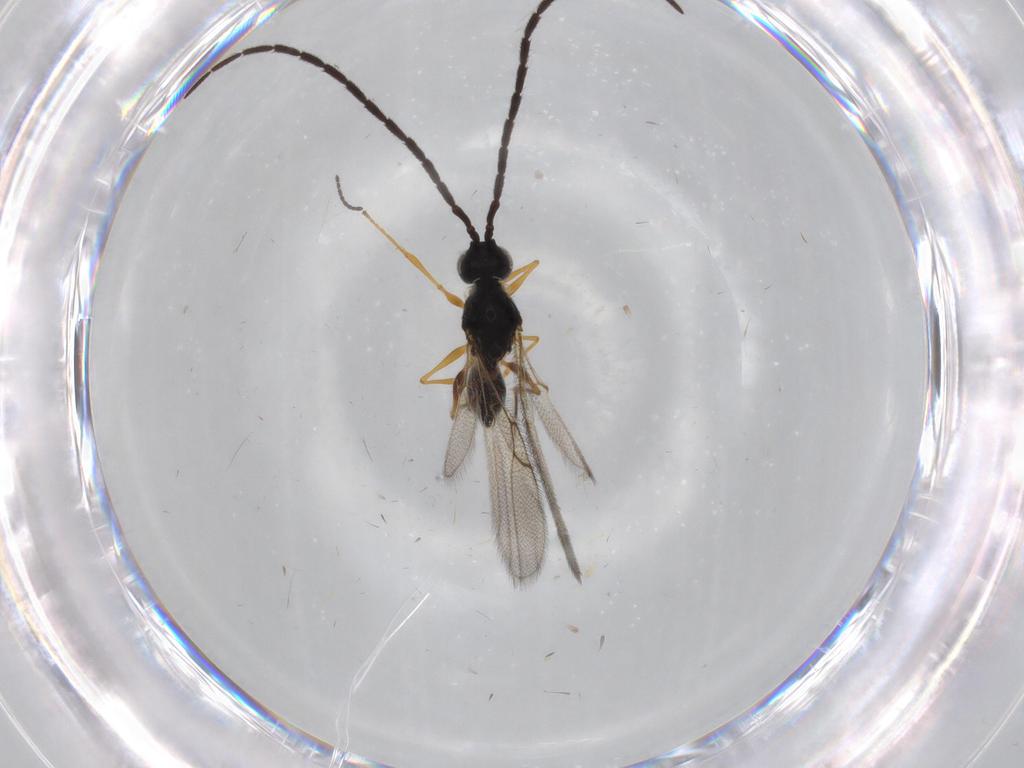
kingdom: Animalia
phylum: Arthropoda
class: Insecta
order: Hymenoptera
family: Figitidae
